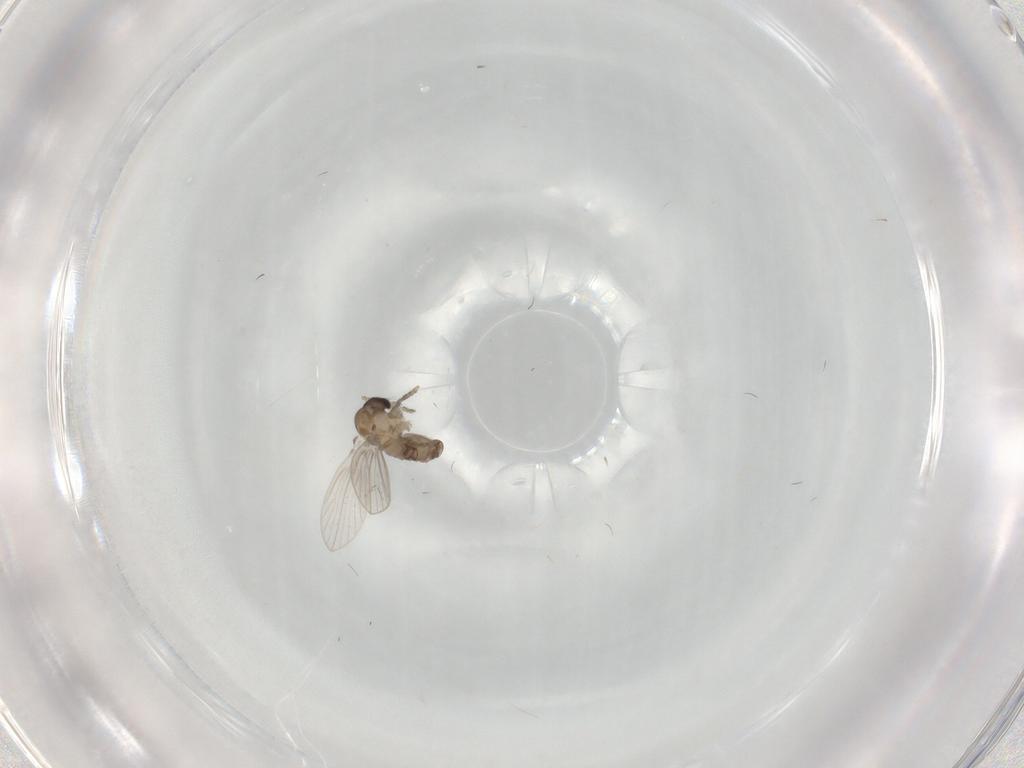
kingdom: Animalia
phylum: Arthropoda
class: Insecta
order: Diptera
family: Psychodidae
